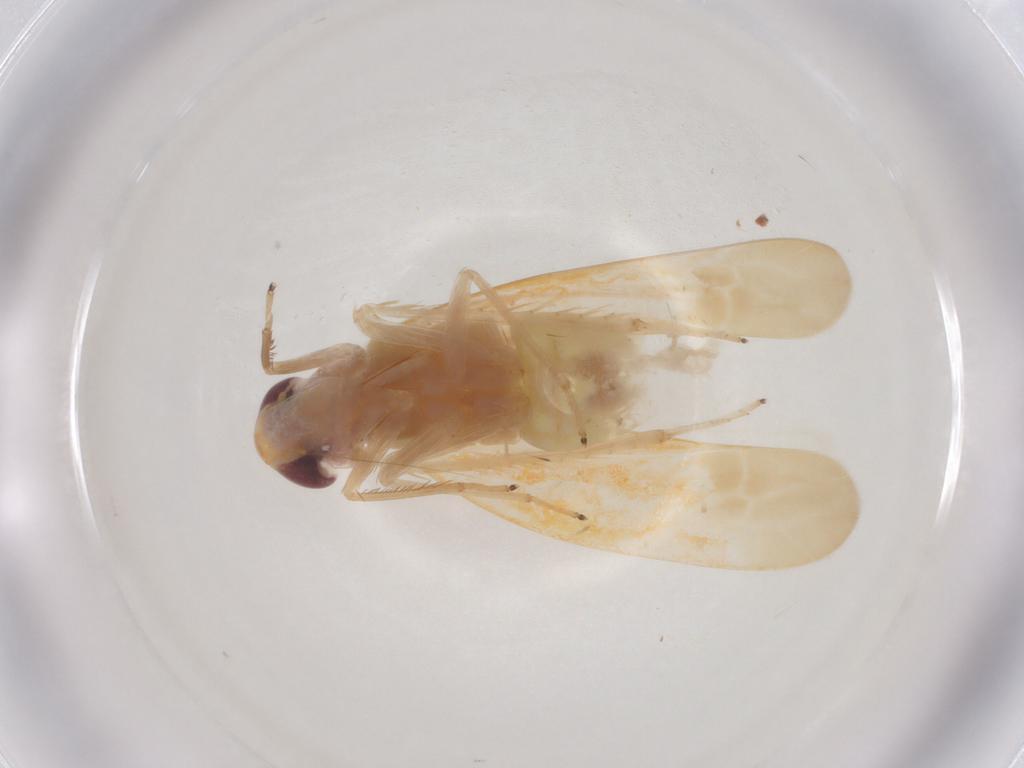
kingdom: Animalia
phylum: Arthropoda
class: Insecta
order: Hemiptera
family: Cicadellidae
